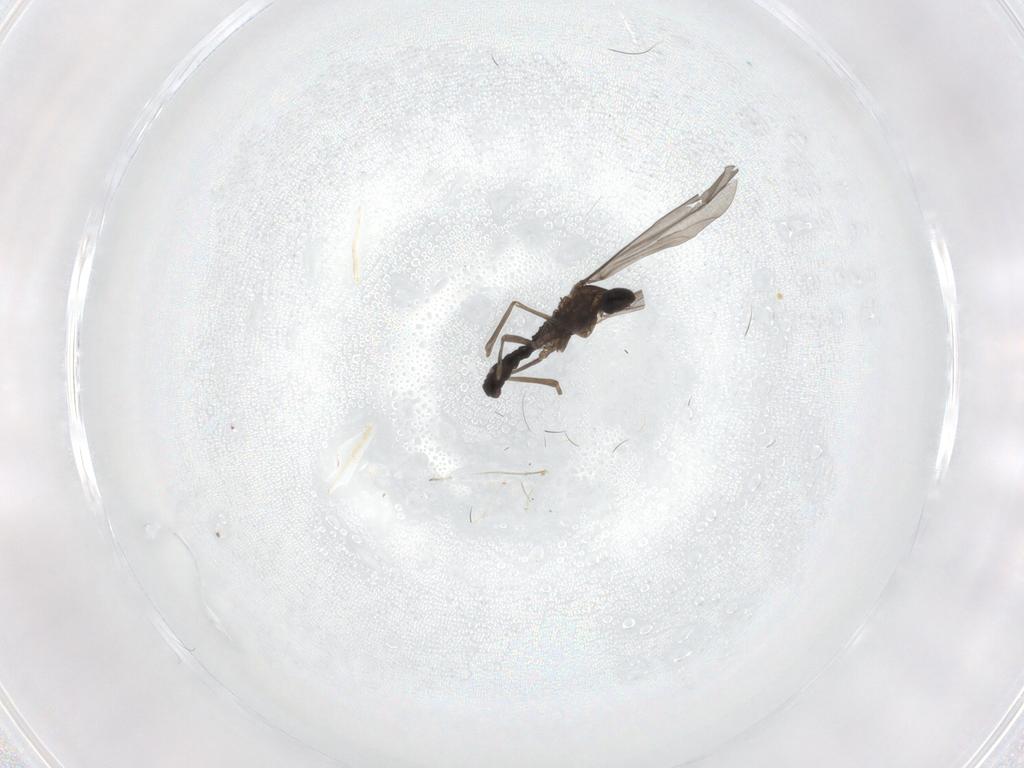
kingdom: Animalia
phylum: Arthropoda
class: Insecta
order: Diptera
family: Cecidomyiidae
